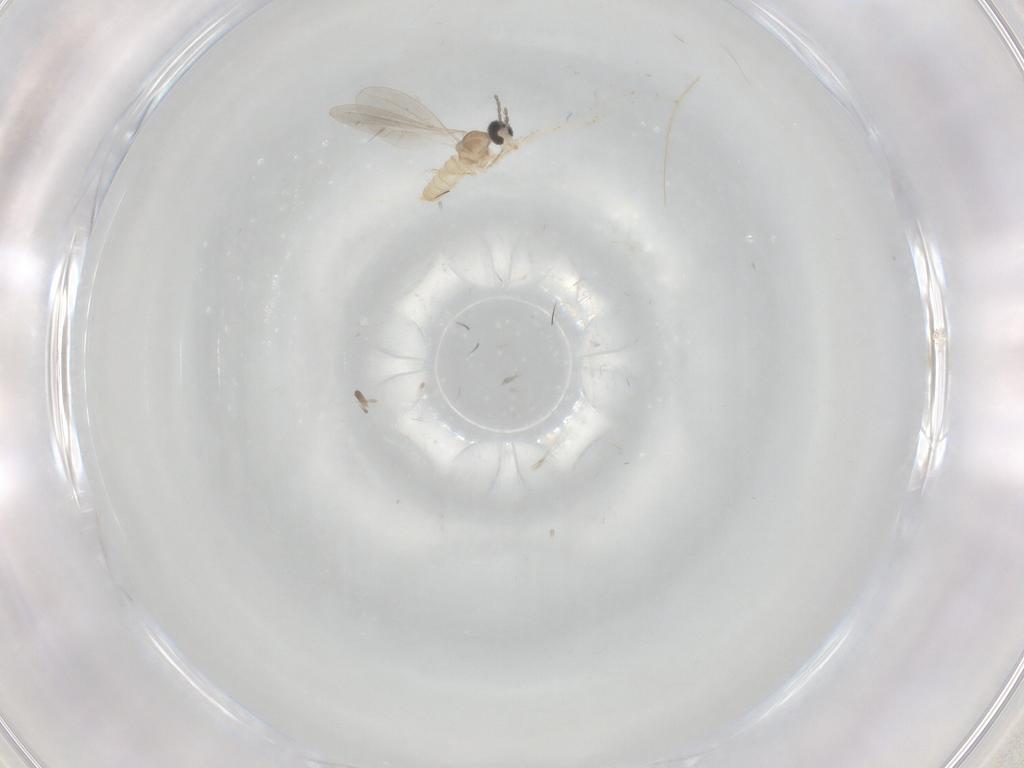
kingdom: Animalia
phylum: Arthropoda
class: Insecta
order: Diptera
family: Cecidomyiidae
